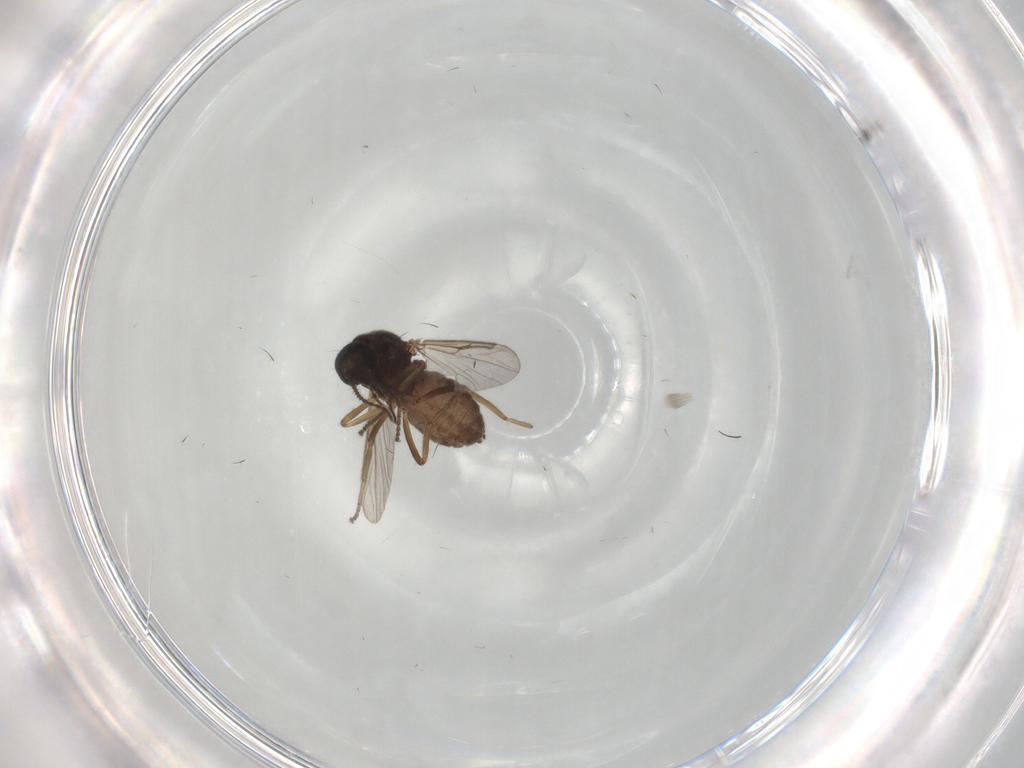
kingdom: Animalia
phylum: Arthropoda
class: Insecta
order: Diptera
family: Ceratopogonidae
